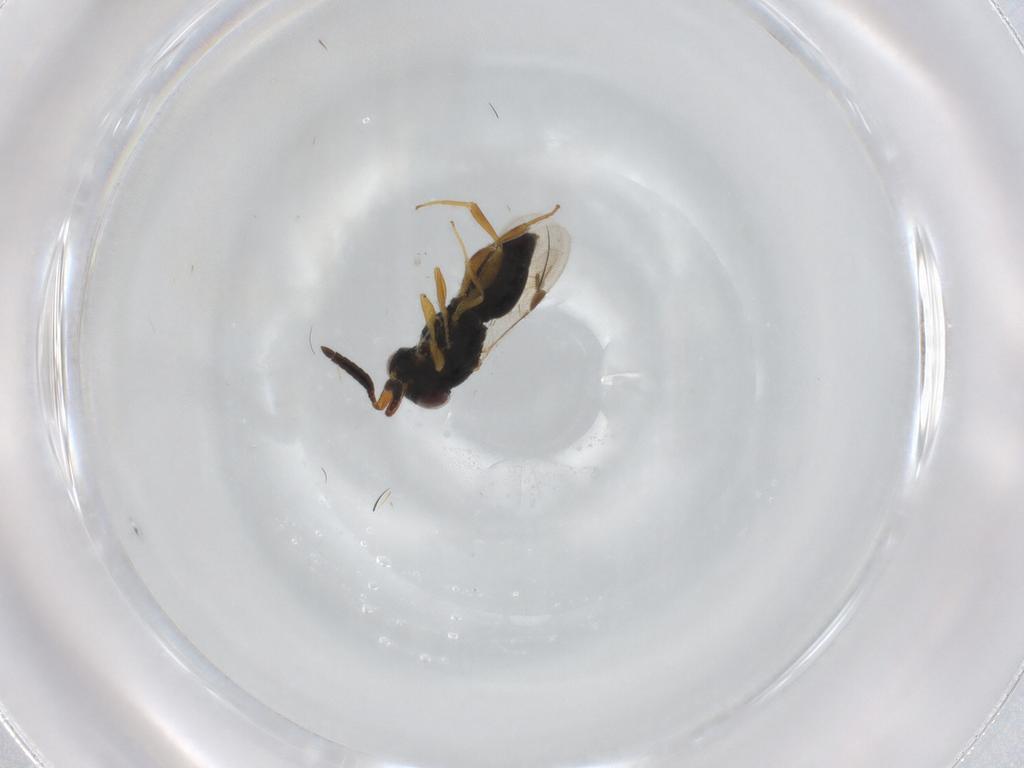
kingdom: Animalia
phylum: Arthropoda
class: Insecta
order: Hymenoptera
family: Megaspilidae
